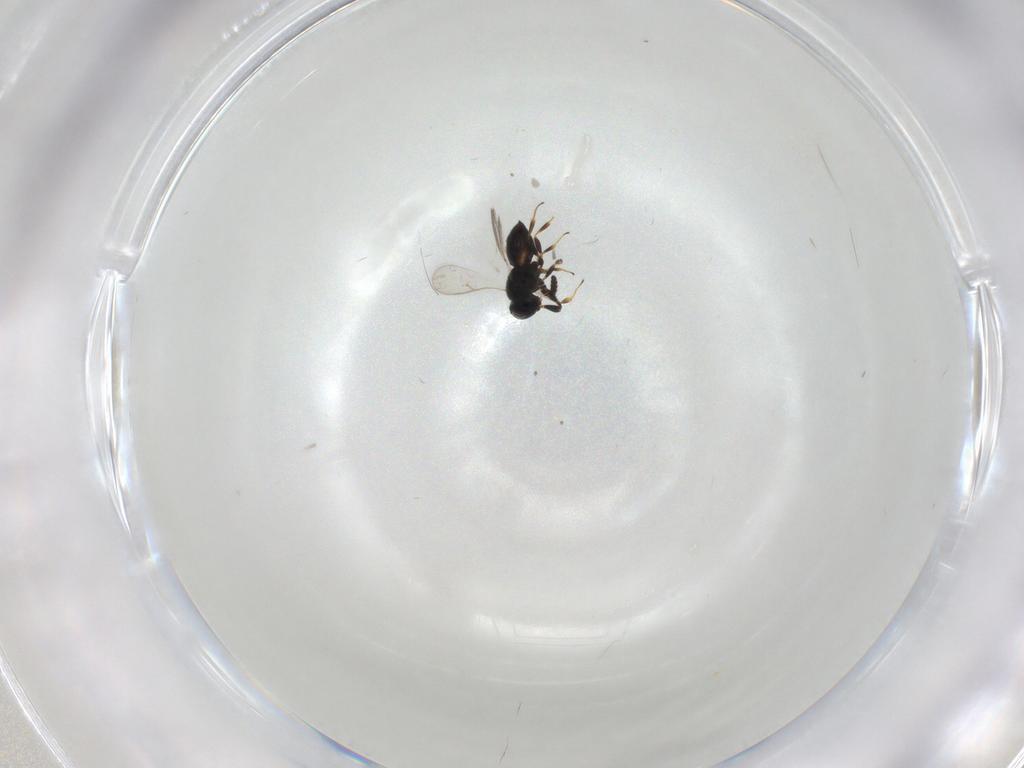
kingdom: Animalia
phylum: Arthropoda
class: Insecta
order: Hymenoptera
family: Scelionidae
